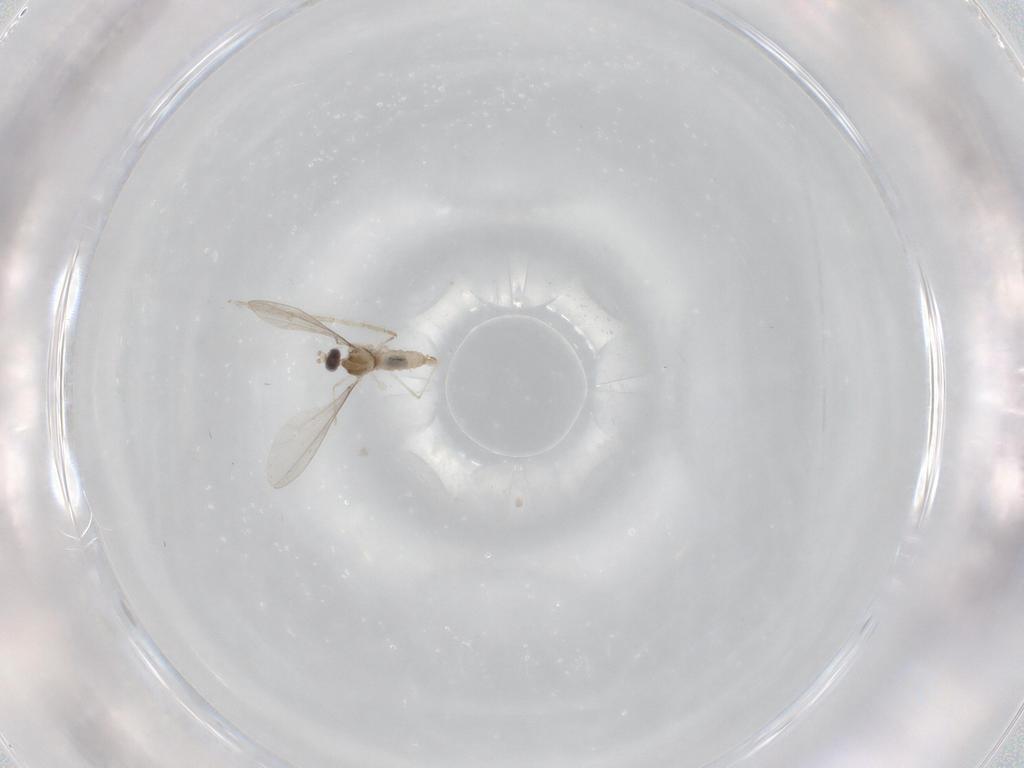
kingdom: Animalia
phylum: Arthropoda
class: Insecta
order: Diptera
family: Chironomidae
